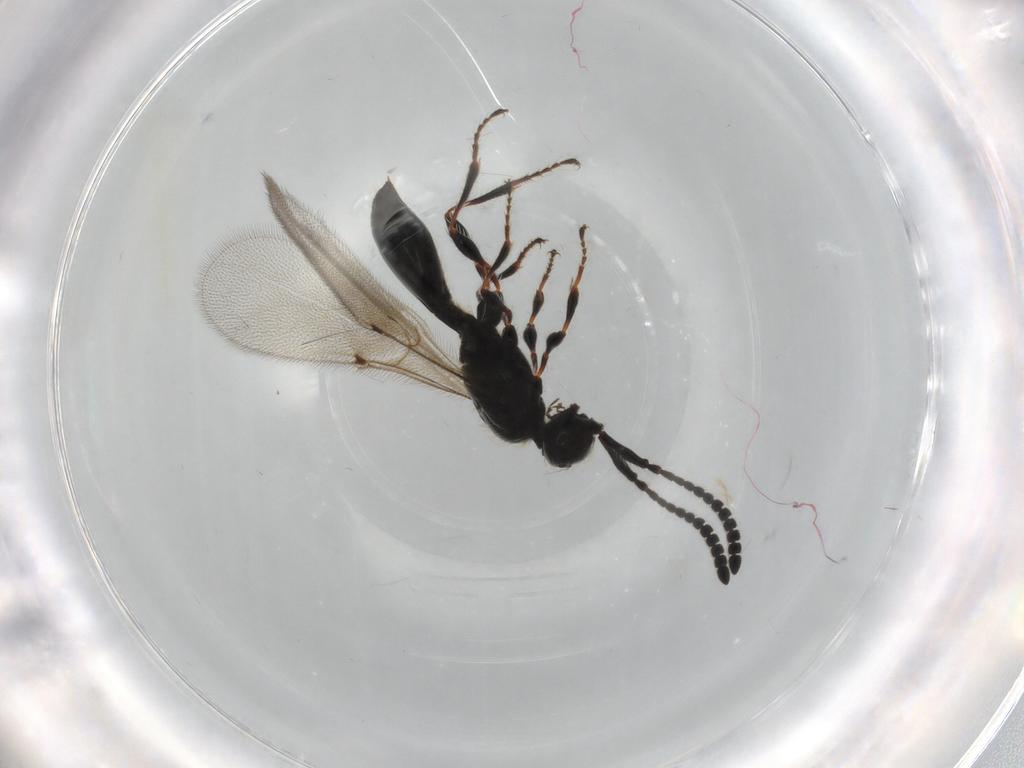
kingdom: Animalia
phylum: Arthropoda
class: Insecta
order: Hymenoptera
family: Diapriidae
